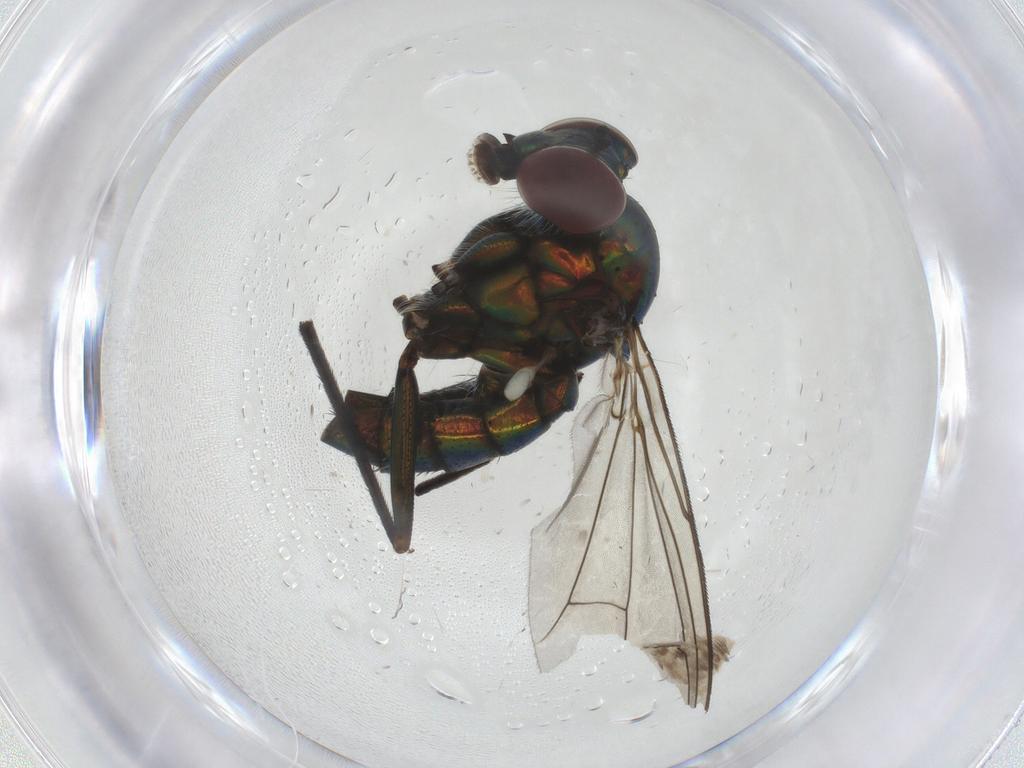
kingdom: Animalia
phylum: Arthropoda
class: Insecta
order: Diptera
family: Dolichopodidae
